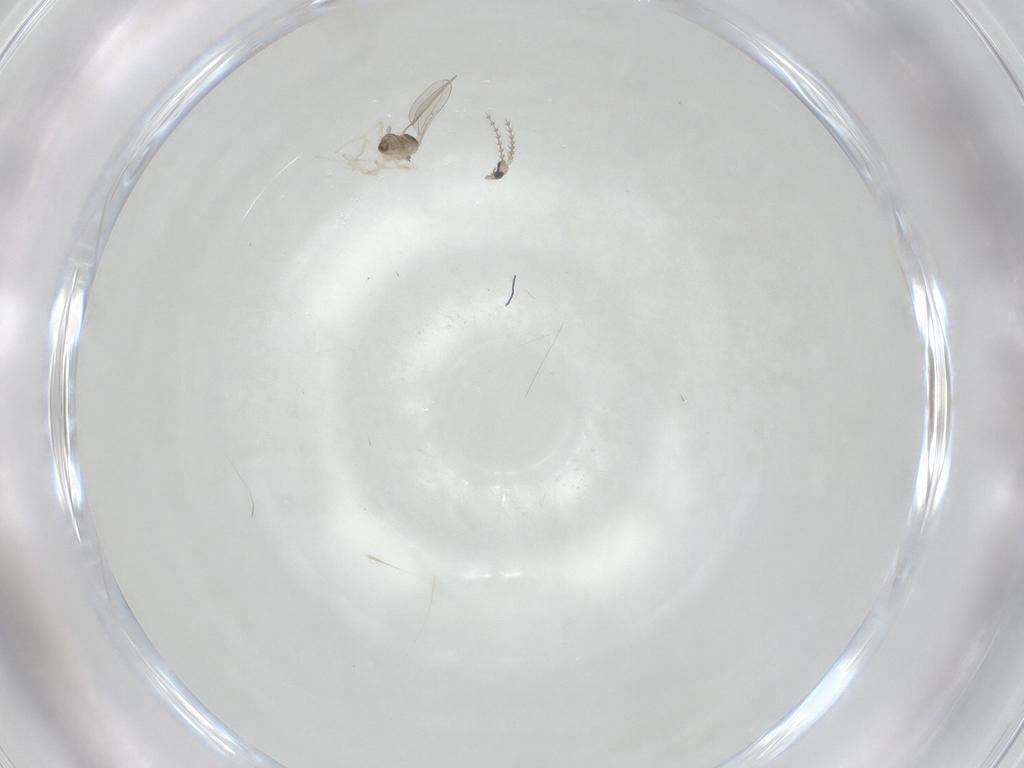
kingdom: Animalia
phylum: Arthropoda
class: Insecta
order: Diptera
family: Cecidomyiidae
